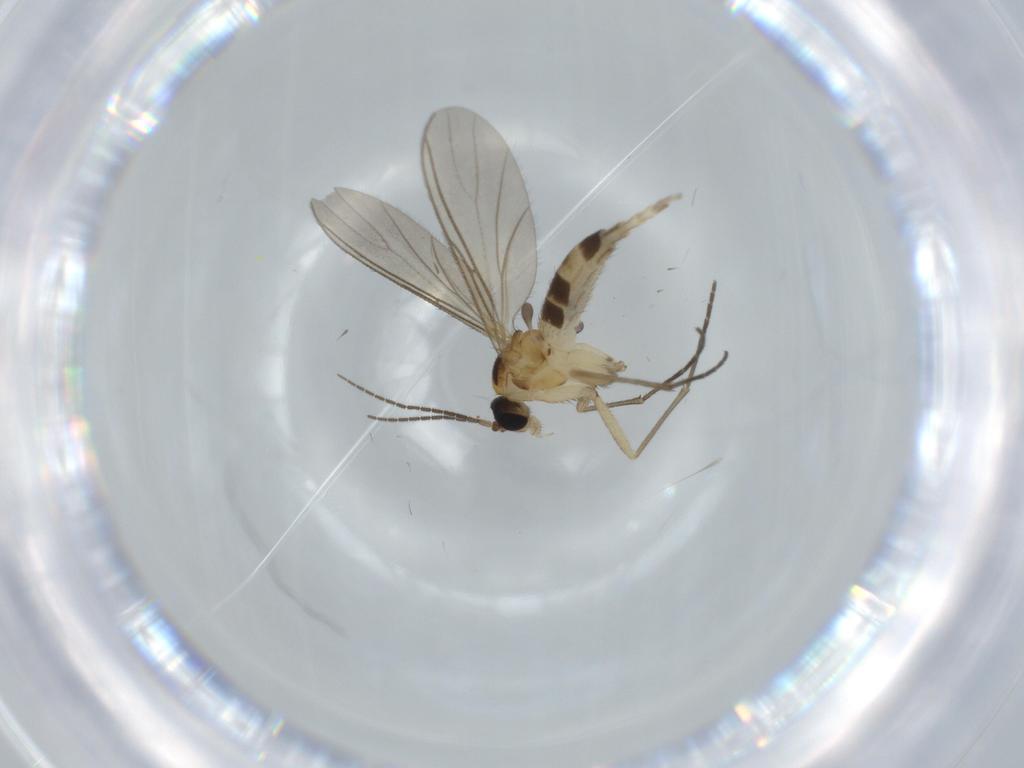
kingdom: Animalia
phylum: Arthropoda
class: Insecta
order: Diptera
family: Sciaridae
